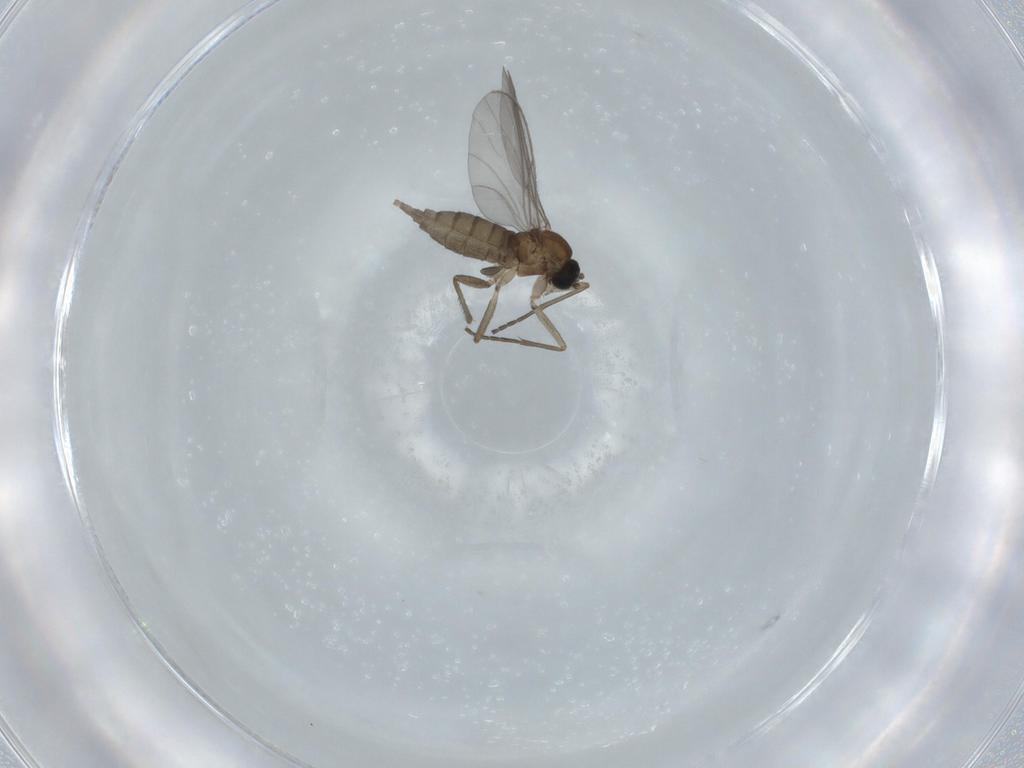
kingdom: Animalia
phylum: Arthropoda
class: Insecta
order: Diptera
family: Sciaridae
